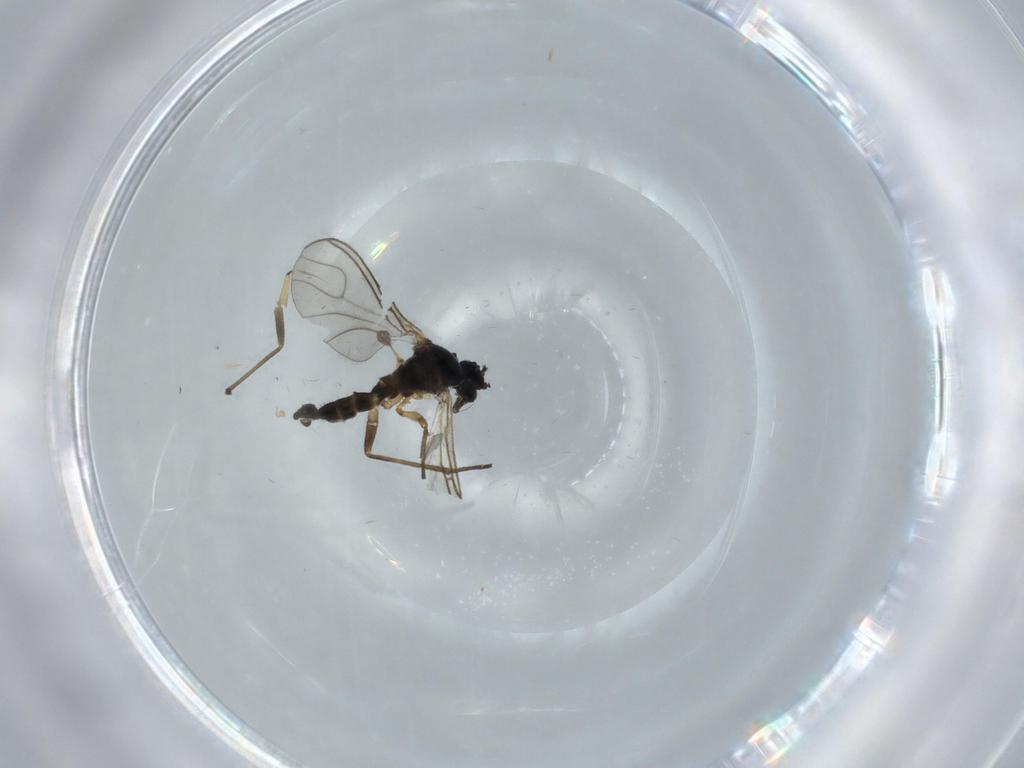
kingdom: Animalia
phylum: Arthropoda
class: Insecta
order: Diptera
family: Sciaridae
